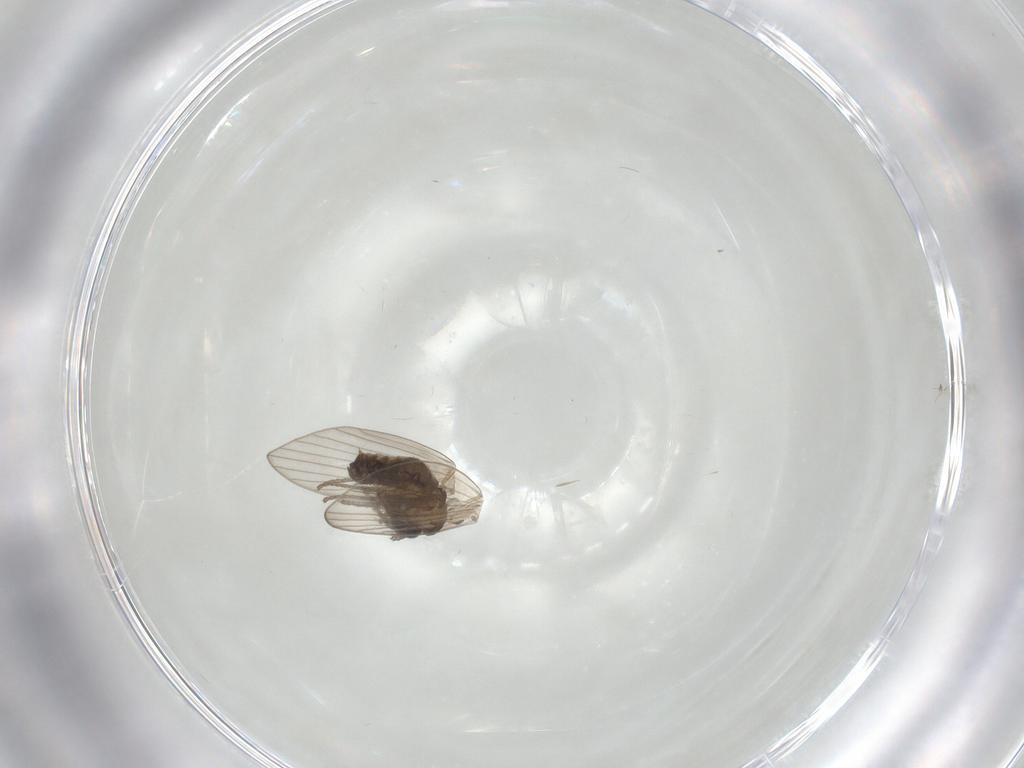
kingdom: Animalia
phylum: Arthropoda
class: Insecta
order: Diptera
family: Psychodidae
